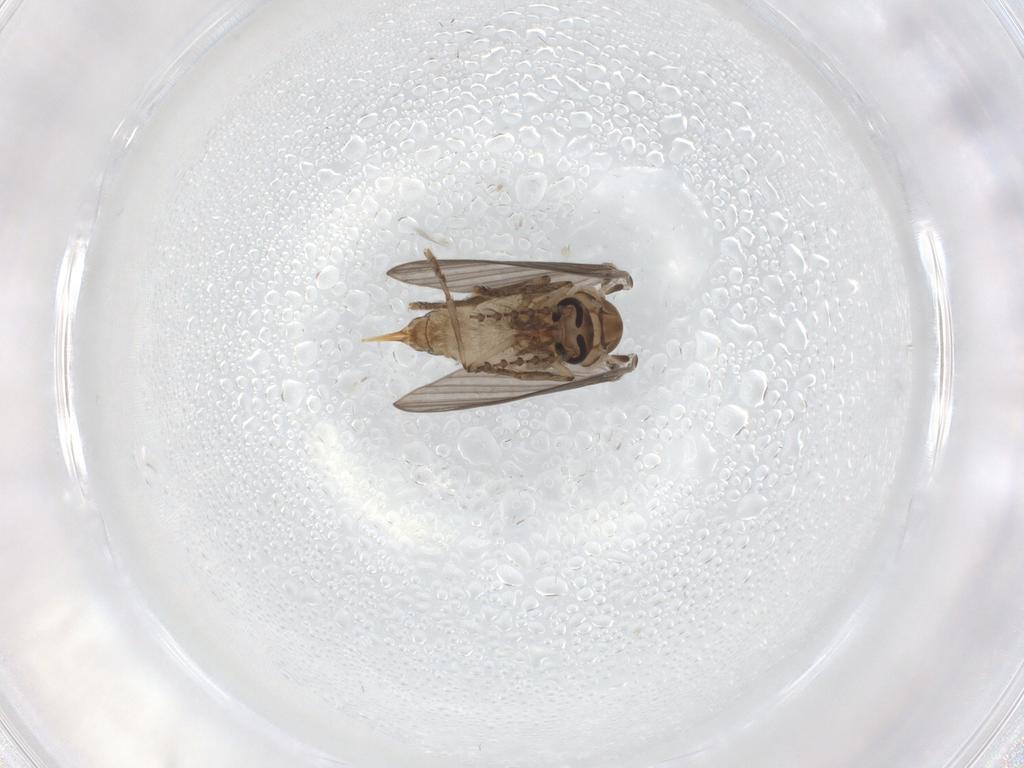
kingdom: Animalia
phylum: Arthropoda
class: Insecta
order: Diptera
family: Psychodidae
